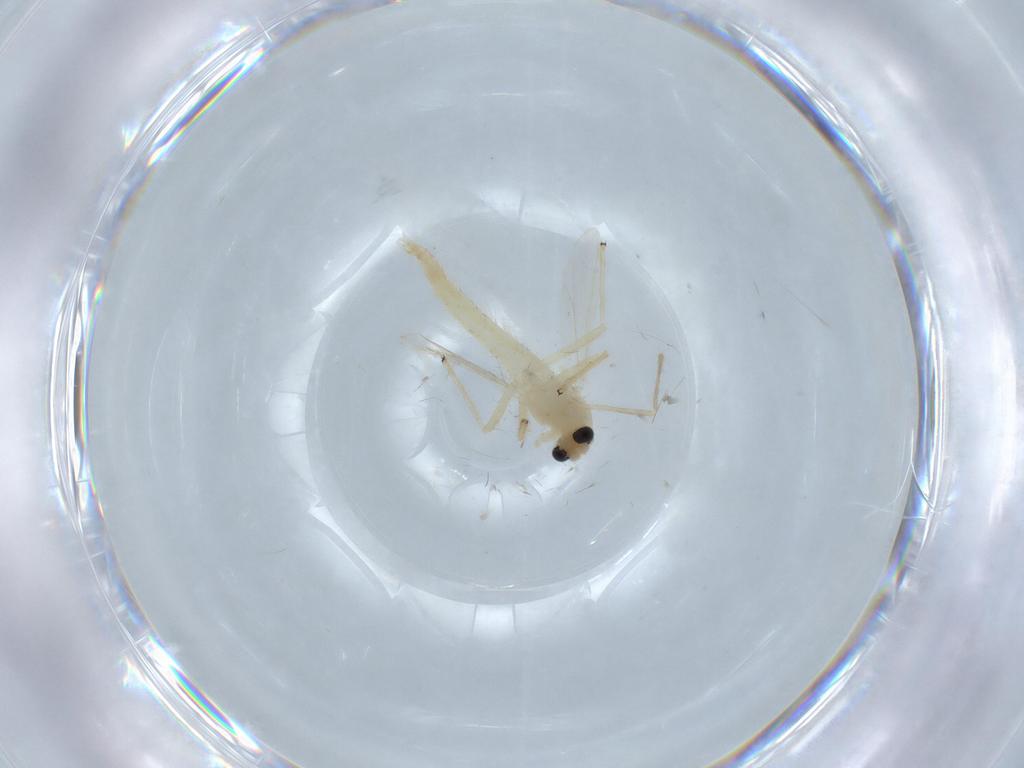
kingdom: Animalia
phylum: Arthropoda
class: Insecta
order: Diptera
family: Chironomidae
